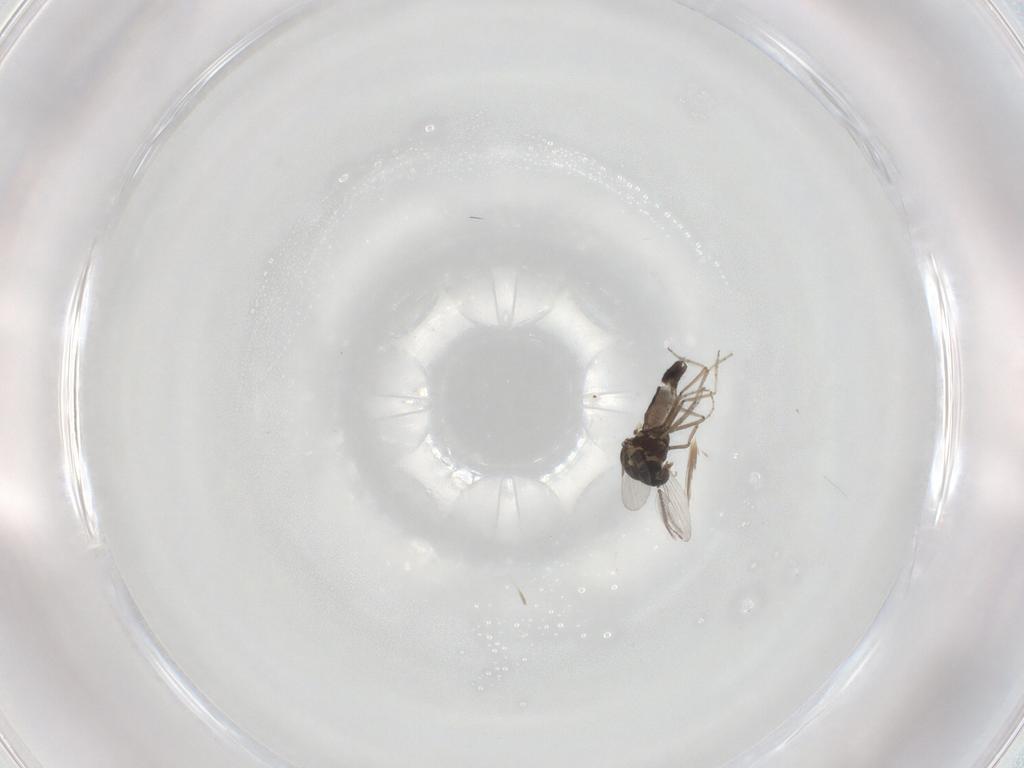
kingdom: Animalia
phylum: Arthropoda
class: Insecta
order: Diptera
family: Ceratopogonidae
